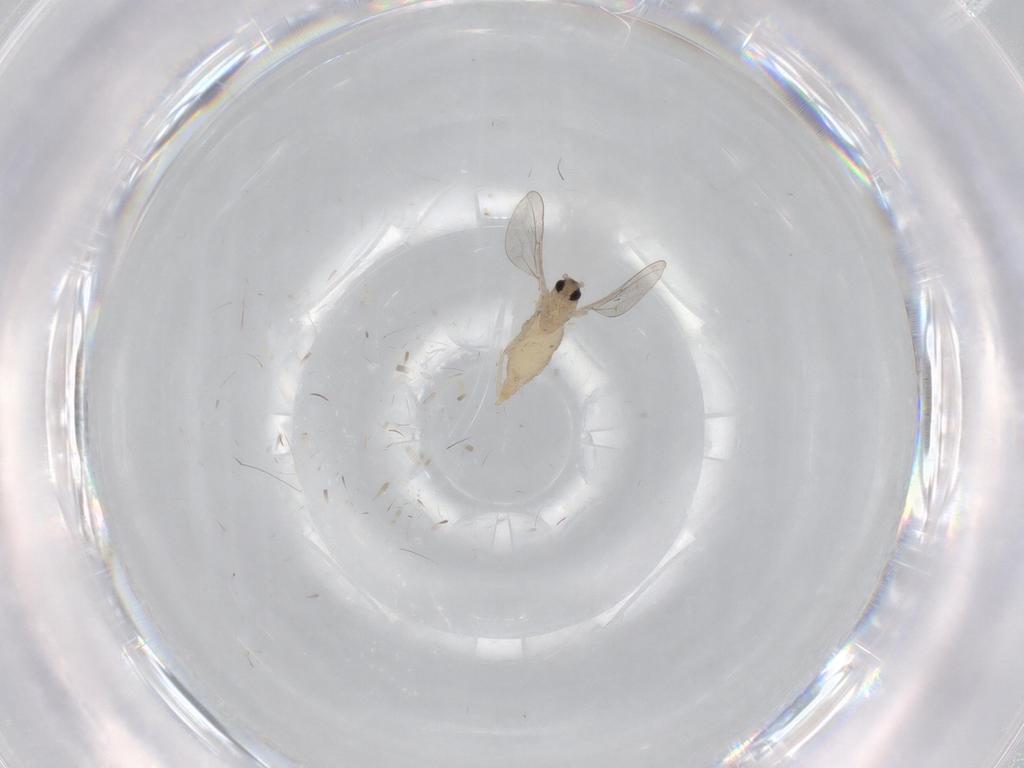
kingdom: Animalia
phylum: Arthropoda
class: Insecta
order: Diptera
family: Cecidomyiidae
